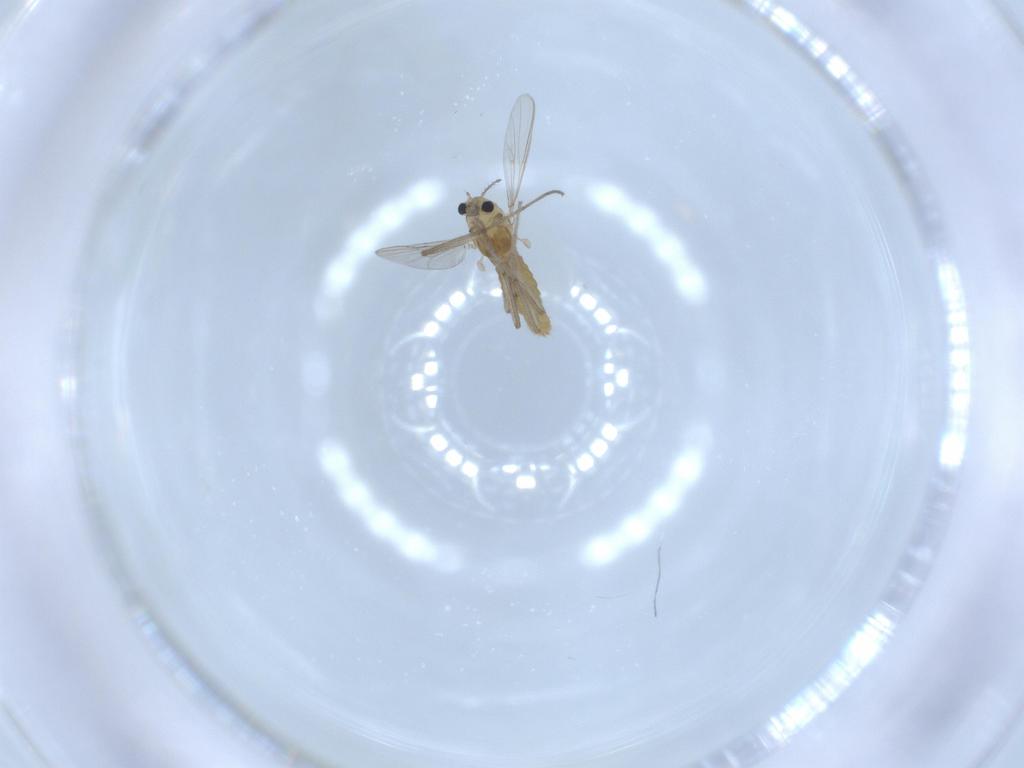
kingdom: Animalia
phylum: Arthropoda
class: Insecta
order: Diptera
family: Chironomidae
